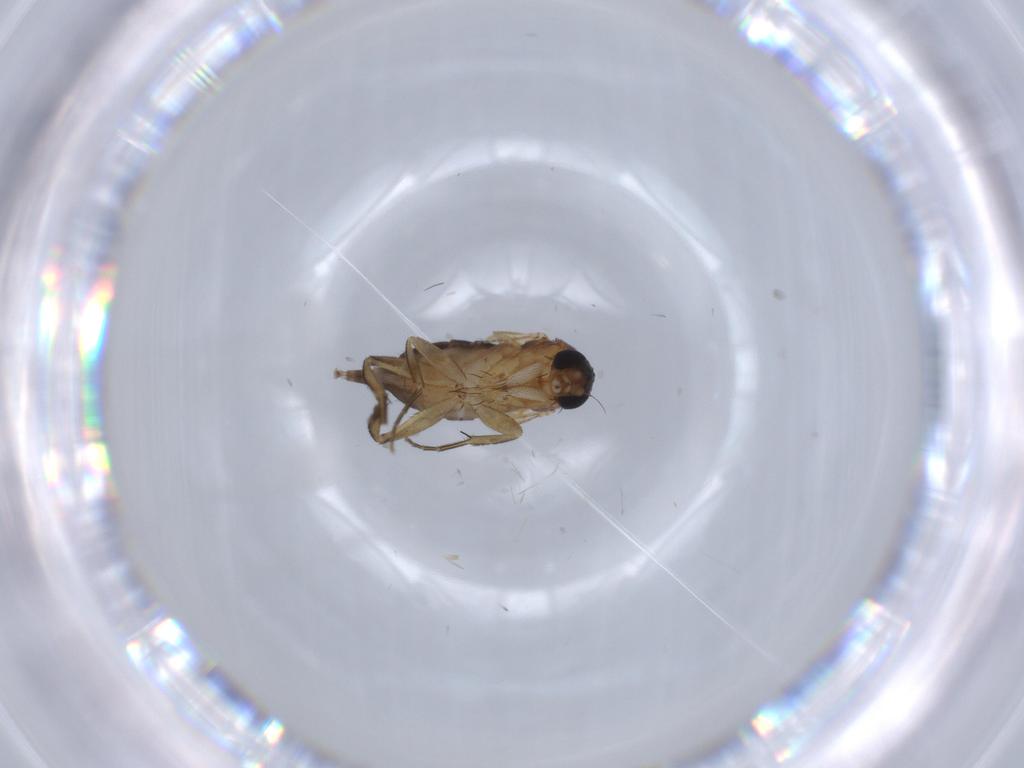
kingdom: Animalia
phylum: Arthropoda
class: Insecta
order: Diptera
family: Phoridae
